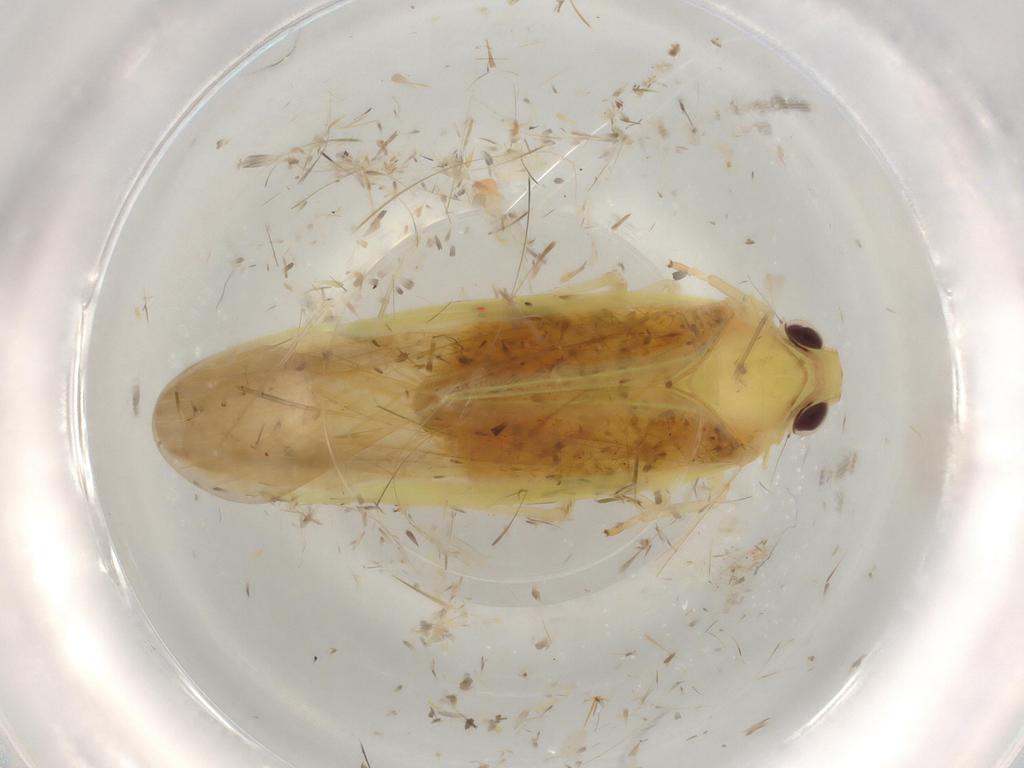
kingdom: Animalia
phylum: Arthropoda
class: Insecta
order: Hemiptera
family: Achilidae
